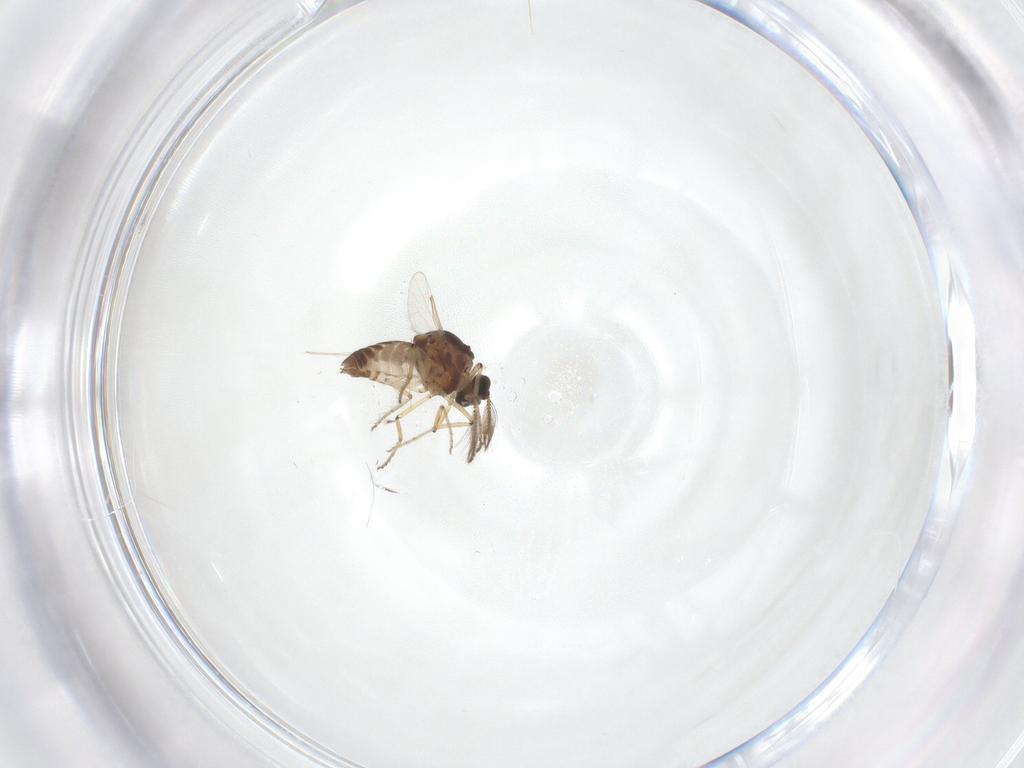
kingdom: Animalia
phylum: Arthropoda
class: Insecta
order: Diptera
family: Ceratopogonidae
